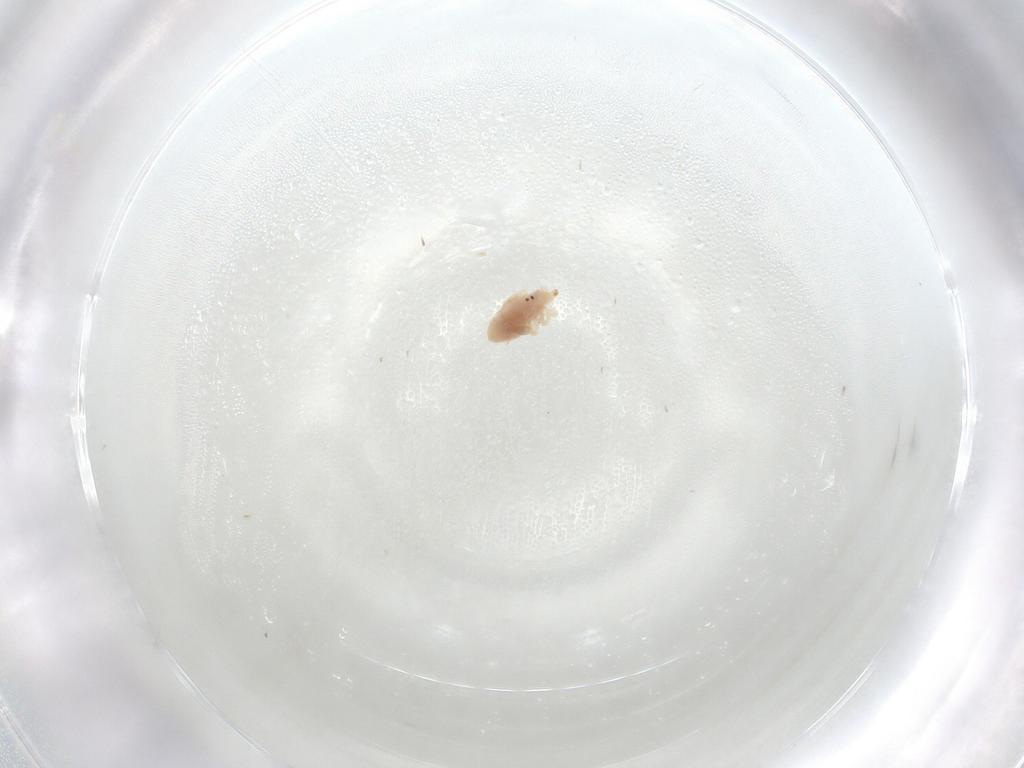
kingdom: Animalia
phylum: Arthropoda
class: Arachnida
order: Trombidiformes
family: Bdellidae
